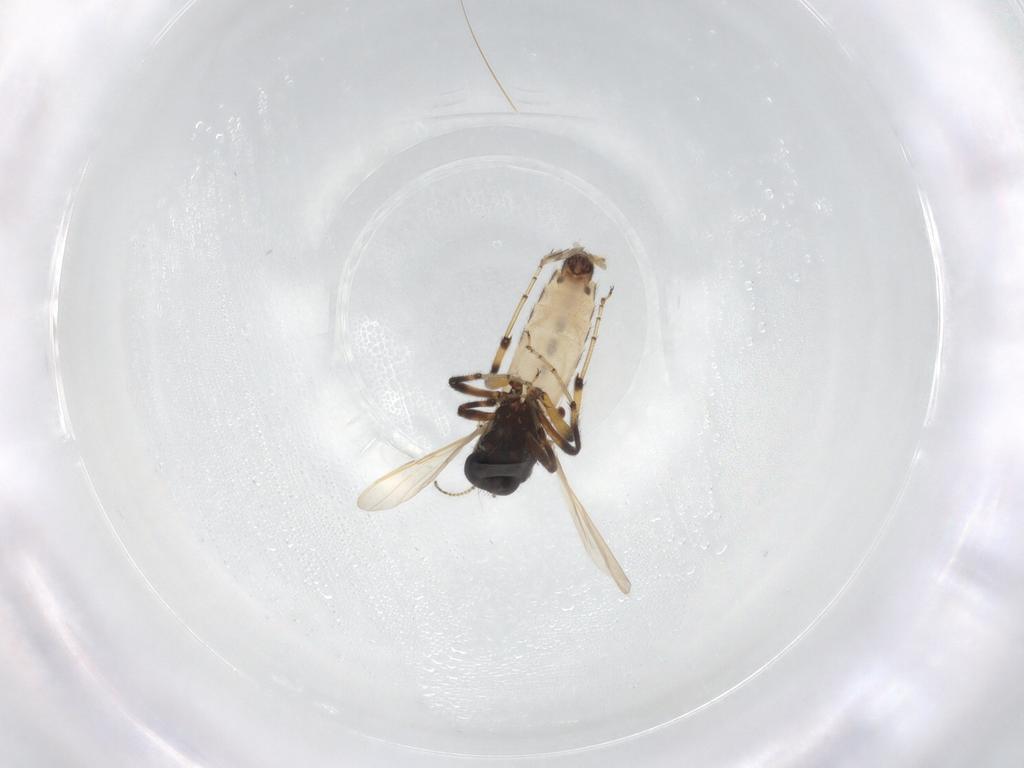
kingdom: Animalia
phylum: Arthropoda
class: Insecta
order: Diptera
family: Ceratopogonidae
